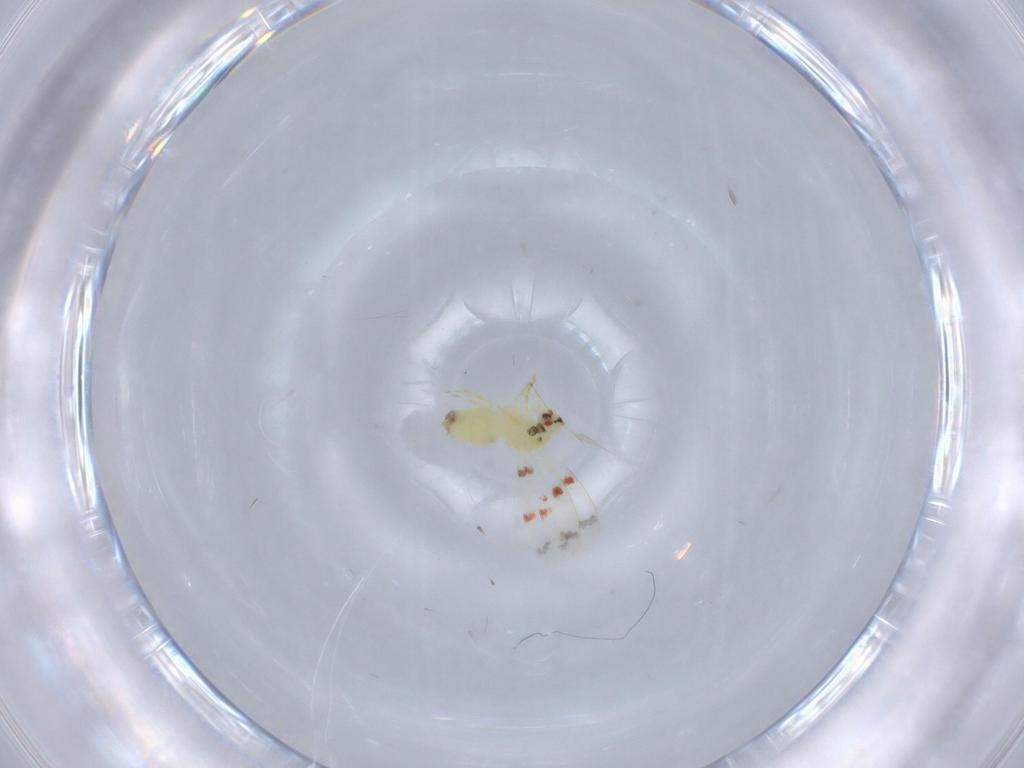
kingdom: Animalia
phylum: Arthropoda
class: Insecta
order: Hemiptera
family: Aleyrodidae
